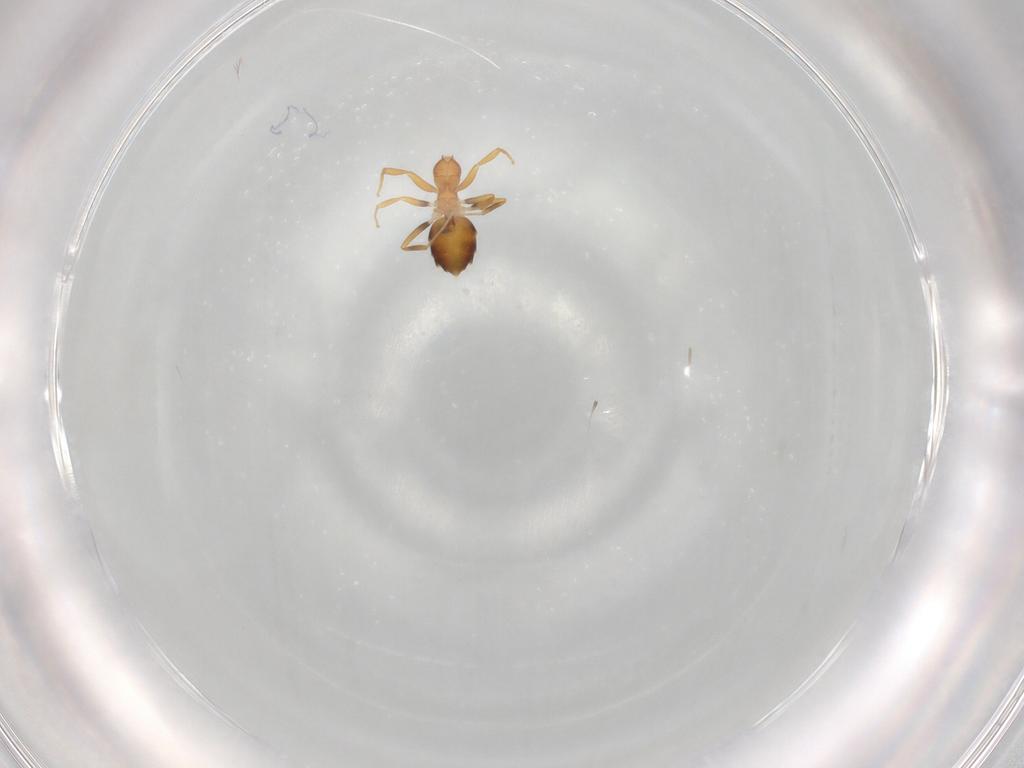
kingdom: Animalia
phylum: Arthropoda
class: Insecta
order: Hymenoptera
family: Formicidae
